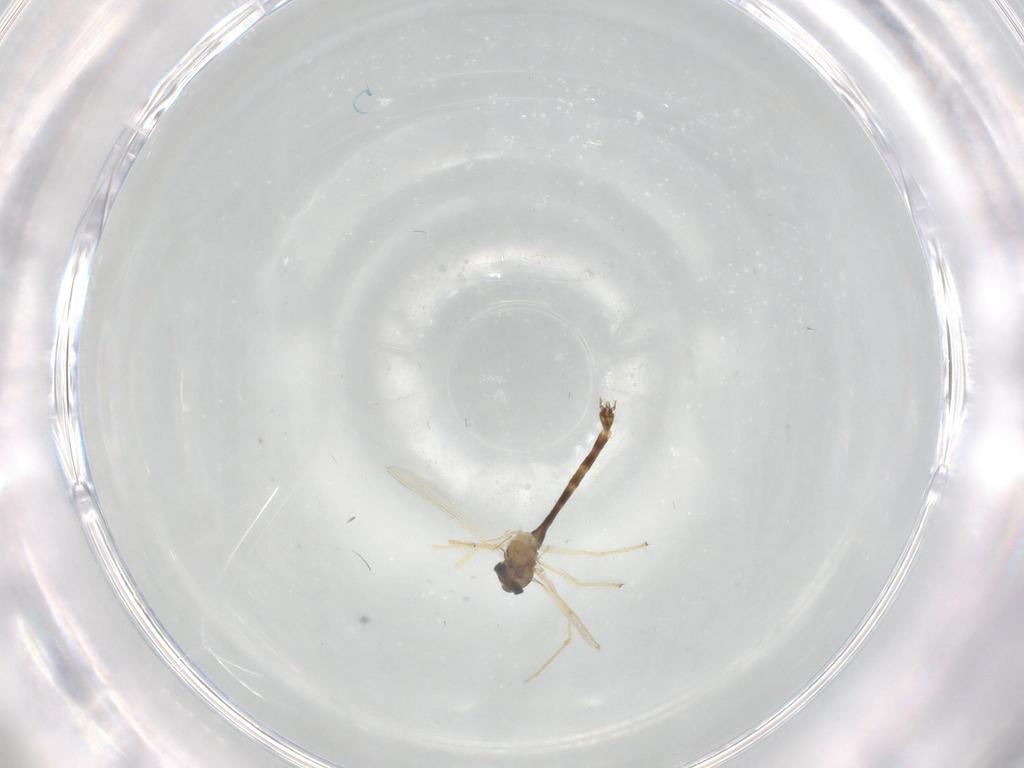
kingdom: Animalia
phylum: Arthropoda
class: Insecta
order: Diptera
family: Chironomidae
